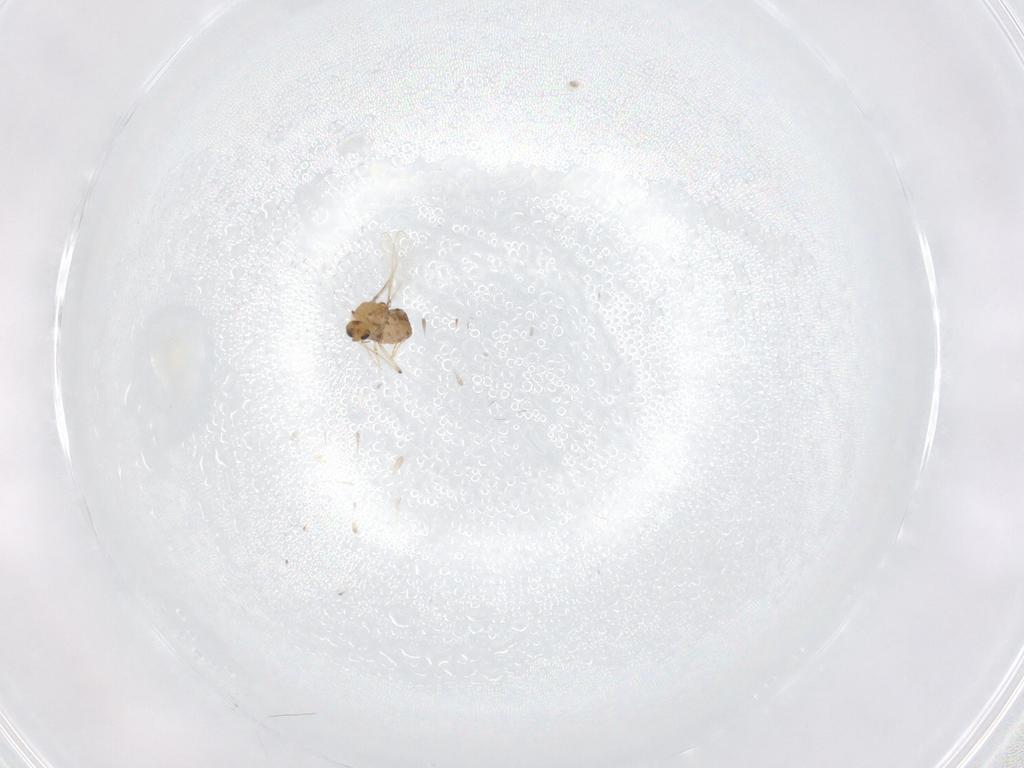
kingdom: Animalia
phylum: Arthropoda
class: Insecta
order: Diptera
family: Chironomidae
